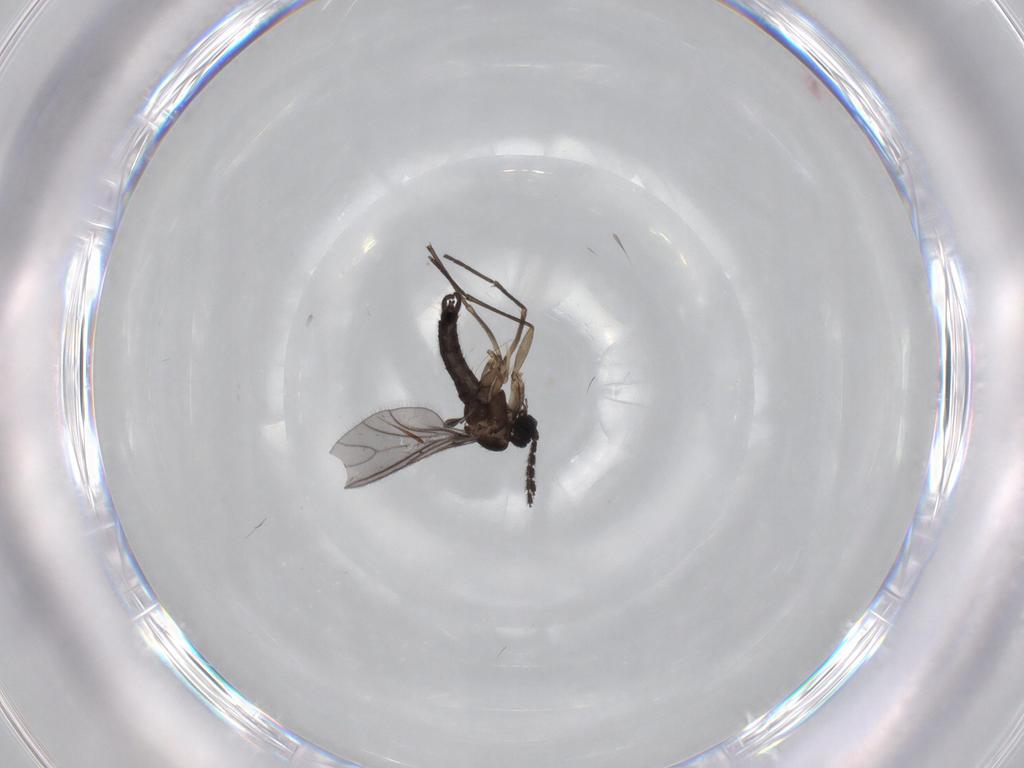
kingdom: Animalia
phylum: Arthropoda
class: Insecta
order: Diptera
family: Sciaridae
